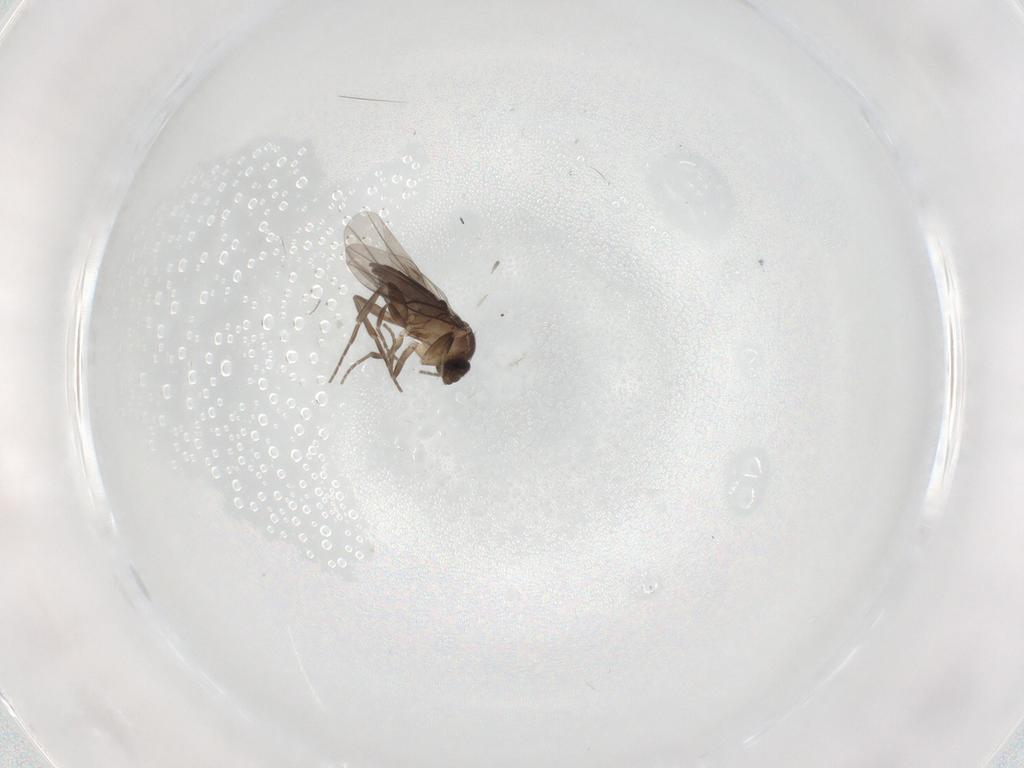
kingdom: Animalia
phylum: Arthropoda
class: Insecta
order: Diptera
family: Phoridae
